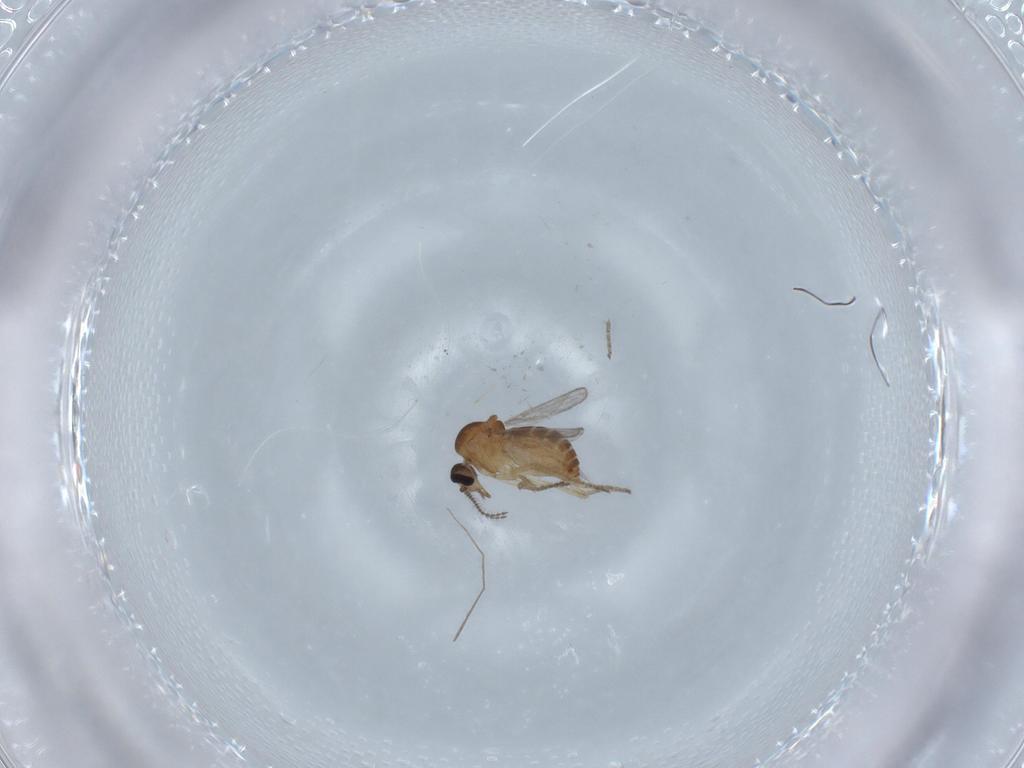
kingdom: Animalia
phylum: Arthropoda
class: Insecta
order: Diptera
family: Ceratopogonidae
